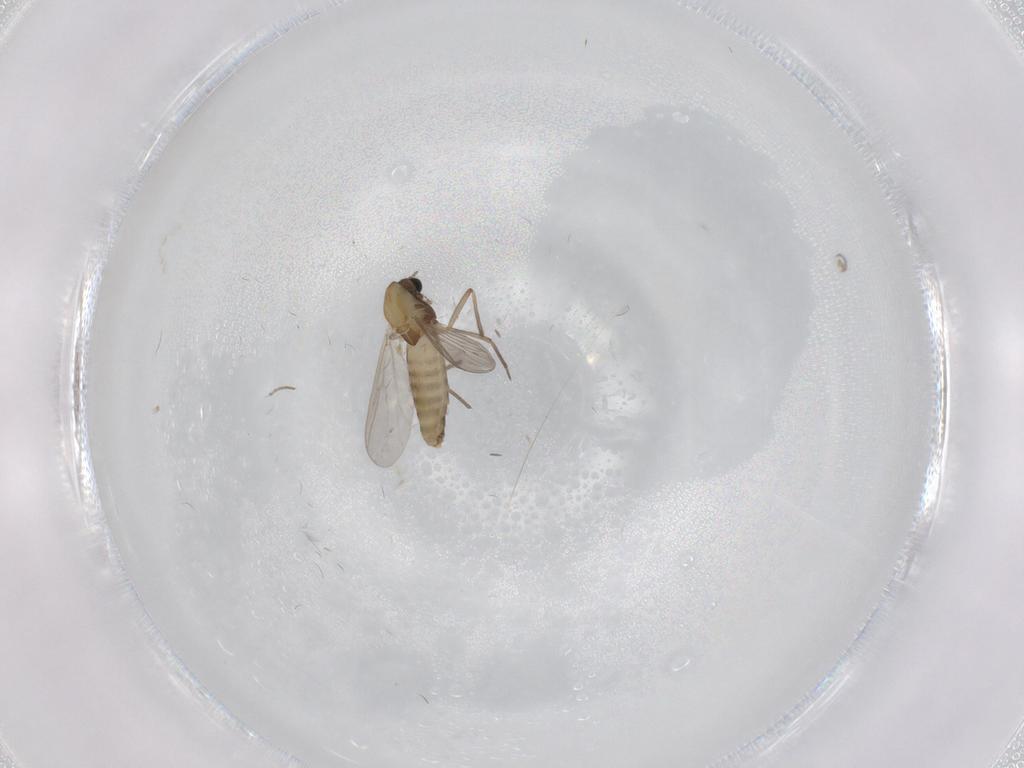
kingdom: Animalia
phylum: Arthropoda
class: Insecta
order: Diptera
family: Chironomidae
